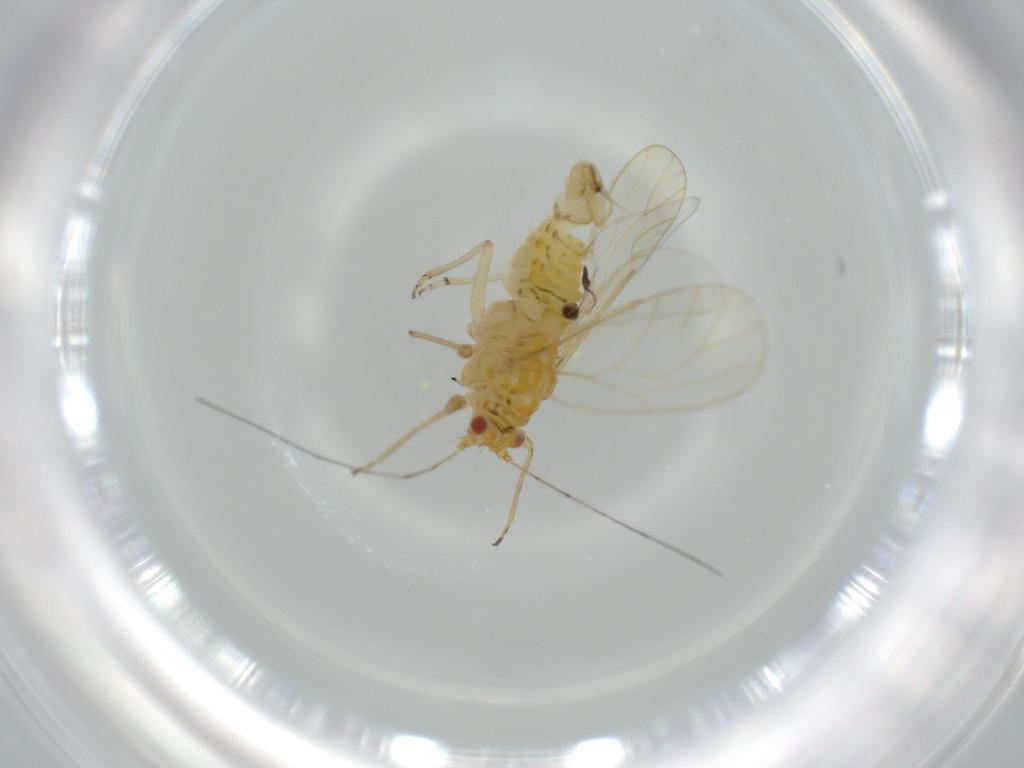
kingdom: Animalia
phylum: Arthropoda
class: Insecta
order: Hemiptera
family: Psyllidae
